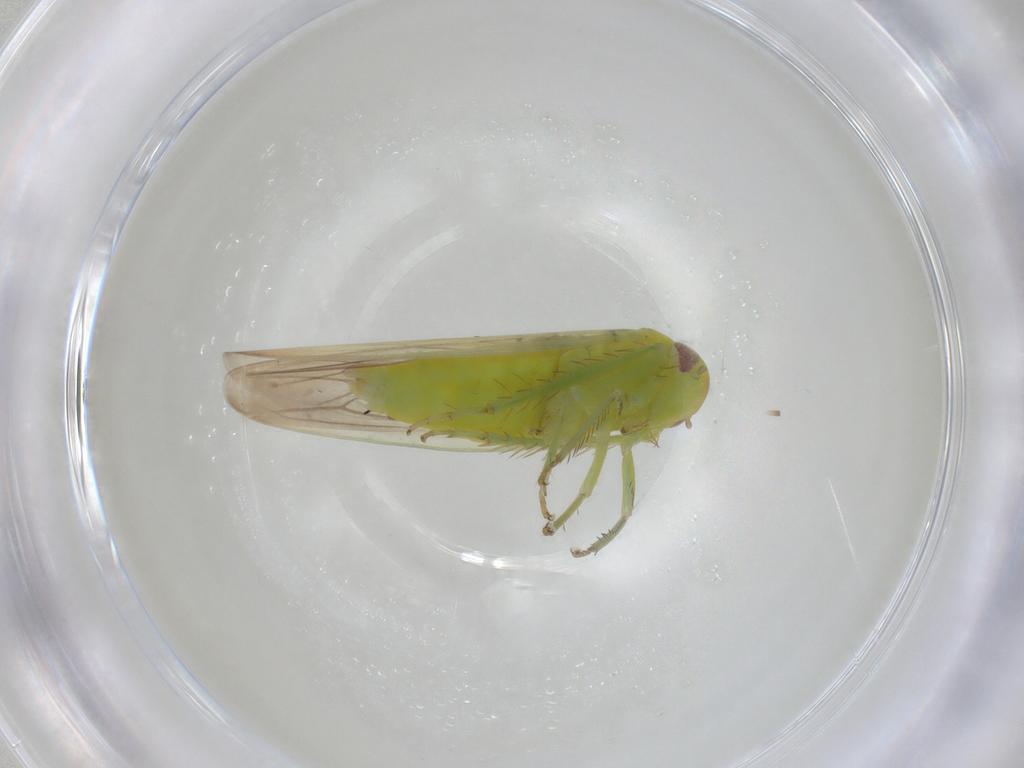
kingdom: Animalia
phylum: Arthropoda
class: Insecta
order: Hemiptera
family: Cicadellidae
